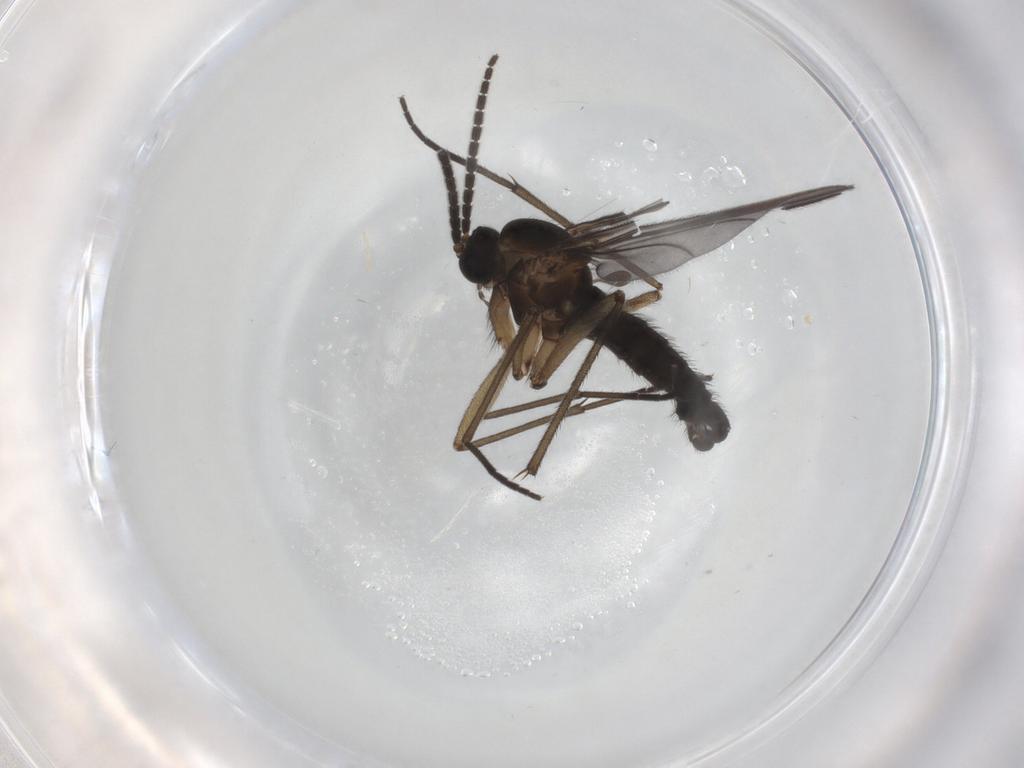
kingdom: Animalia
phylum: Arthropoda
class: Insecta
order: Diptera
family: Sciaridae
